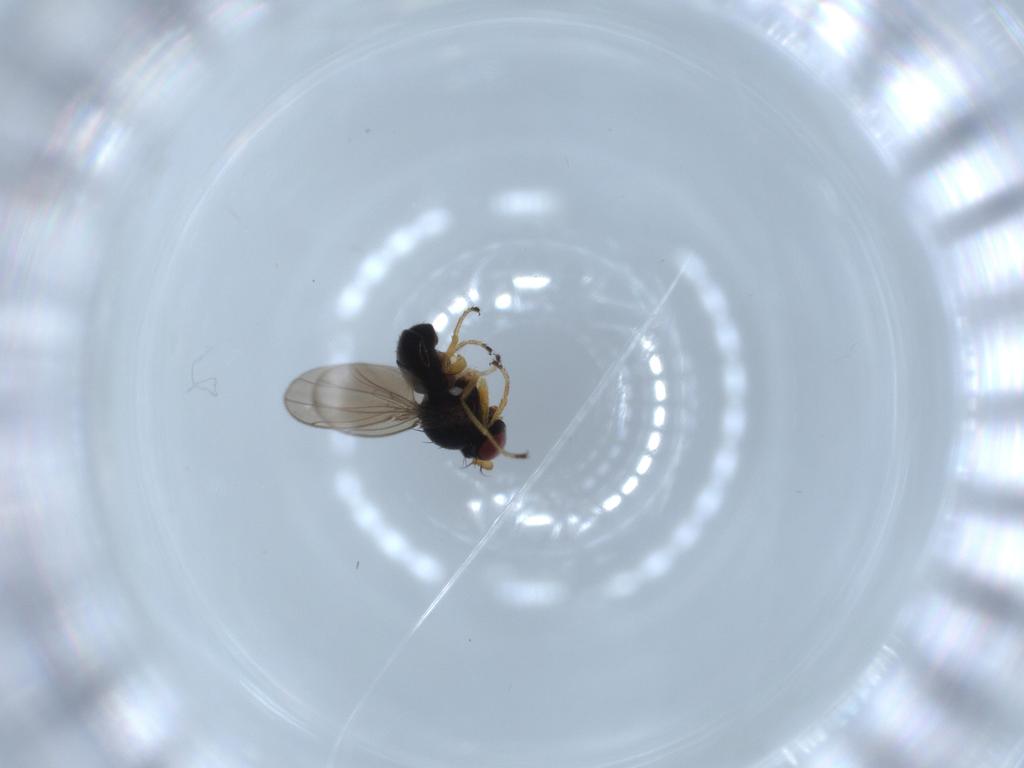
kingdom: Animalia
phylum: Arthropoda
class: Insecta
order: Diptera
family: Ephydridae
